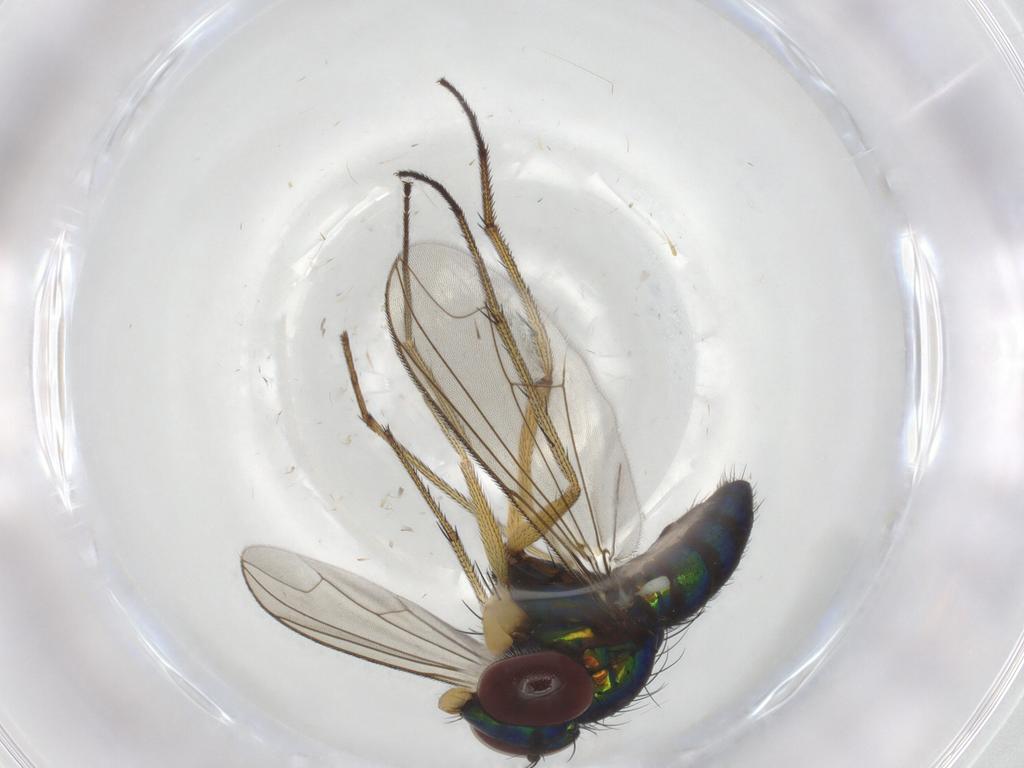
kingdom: Animalia
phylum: Arthropoda
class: Insecta
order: Diptera
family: Dolichopodidae
